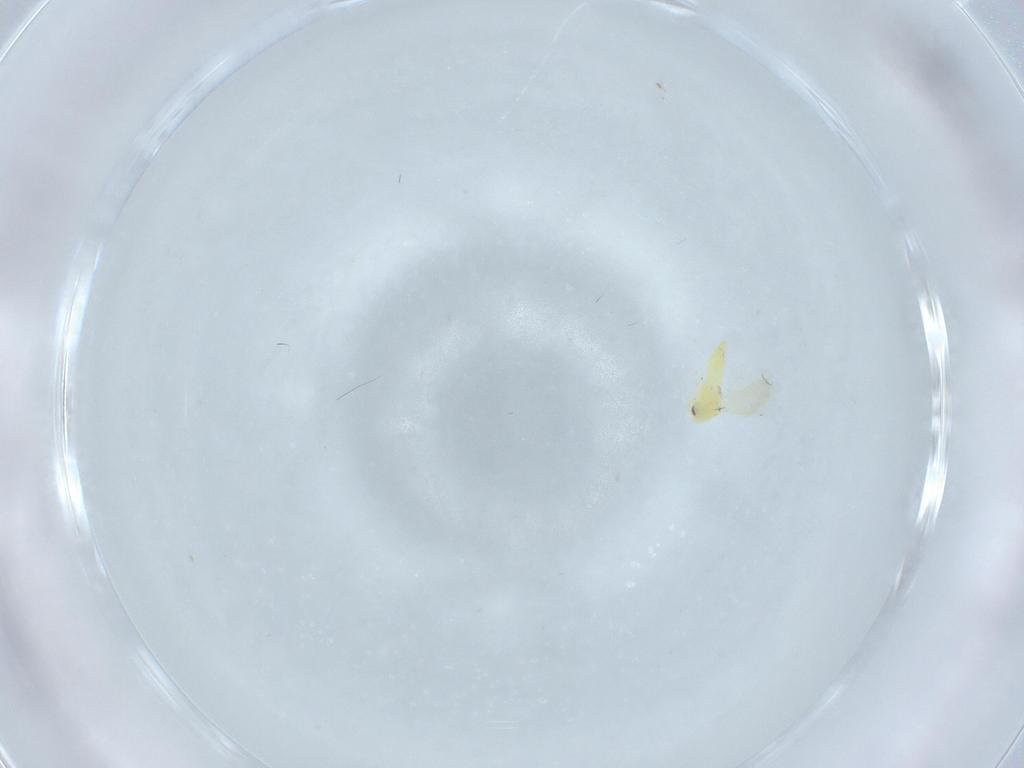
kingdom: Animalia
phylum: Arthropoda
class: Insecta
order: Hemiptera
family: Aleyrodidae
